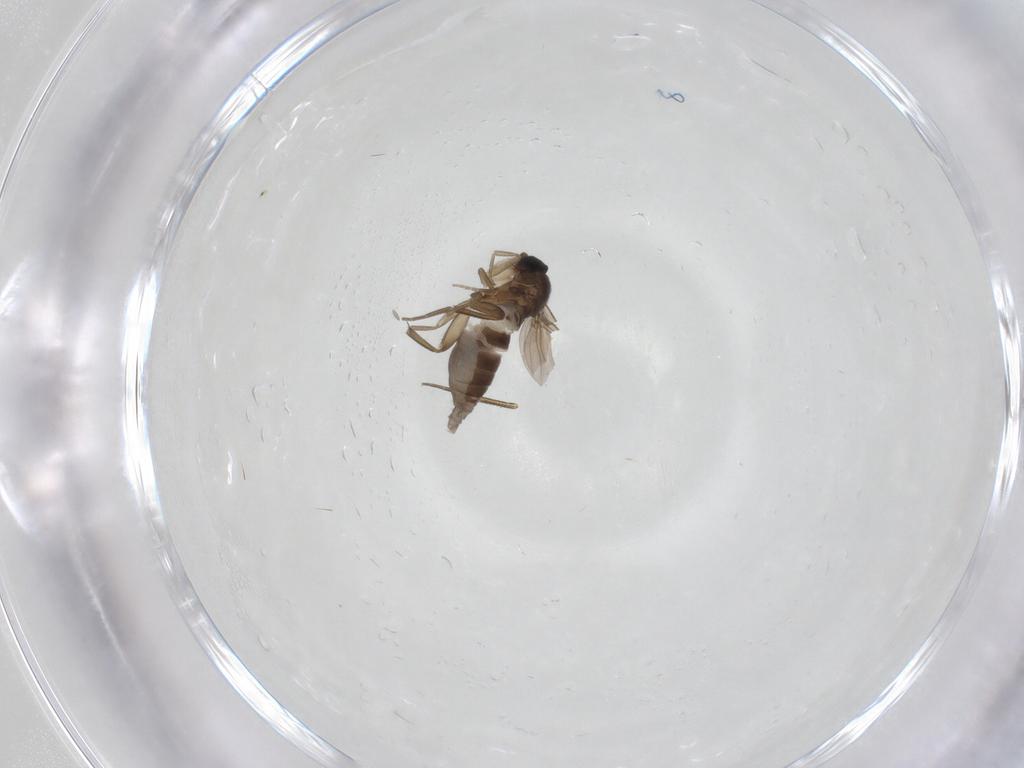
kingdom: Animalia
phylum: Arthropoda
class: Insecta
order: Diptera
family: Phoridae
